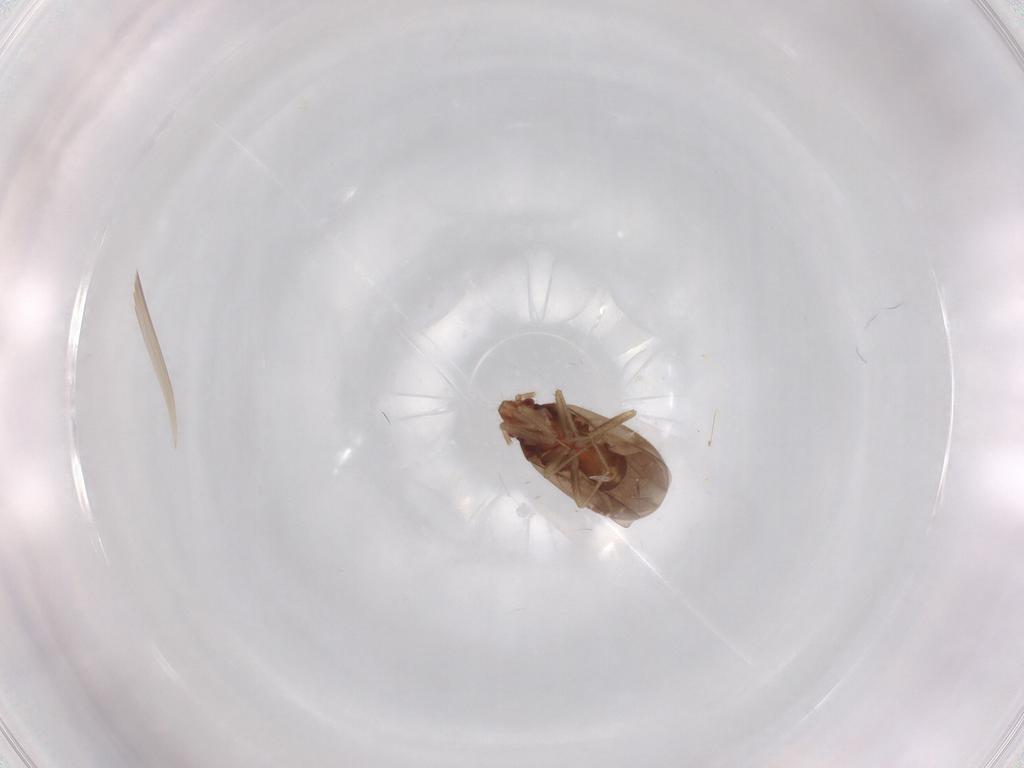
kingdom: Animalia
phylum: Arthropoda
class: Insecta
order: Hemiptera
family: Ceratocombidae
